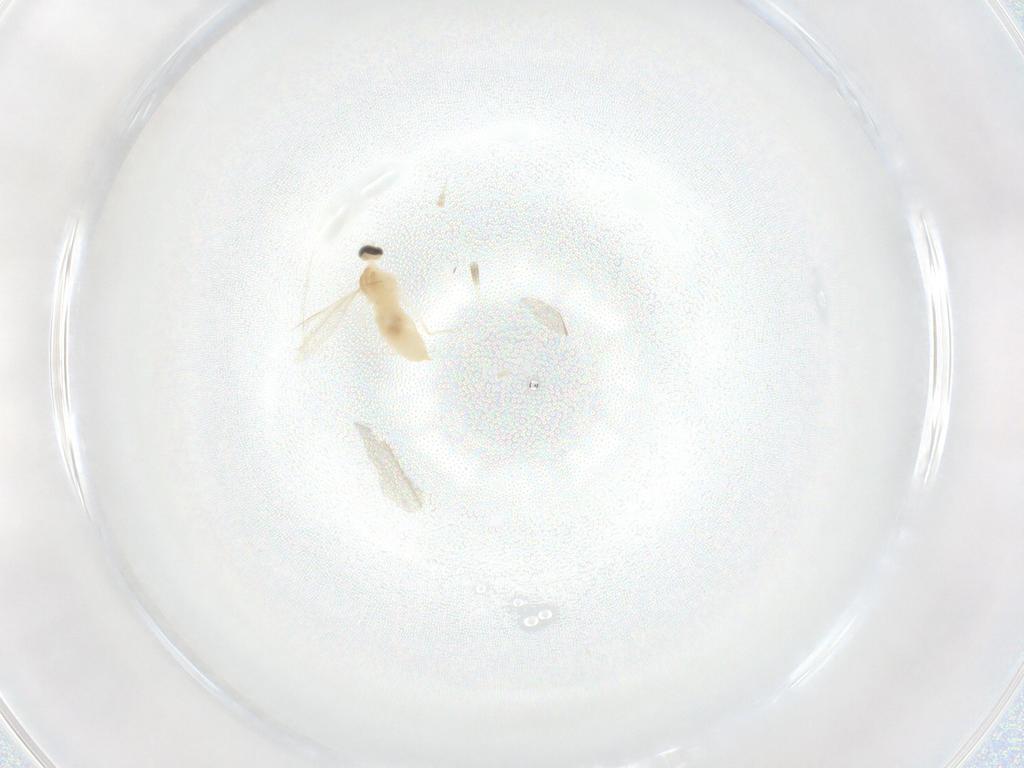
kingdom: Animalia
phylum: Arthropoda
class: Insecta
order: Diptera
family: Cecidomyiidae
